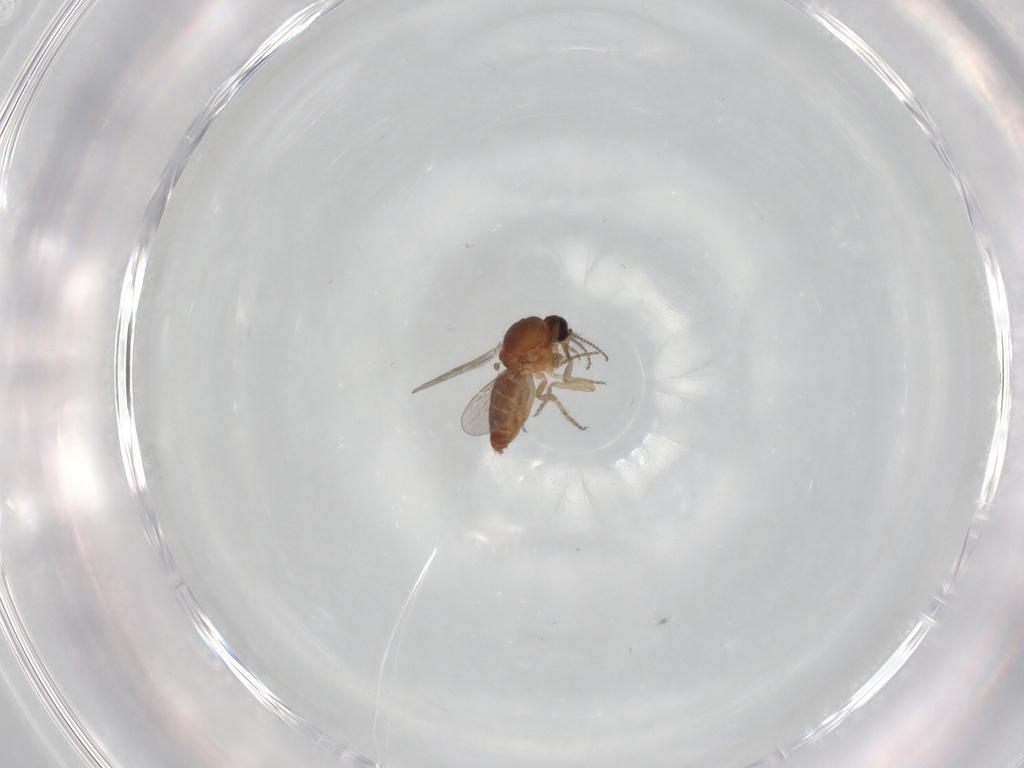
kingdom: Animalia
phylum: Arthropoda
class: Insecta
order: Diptera
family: Ceratopogonidae
